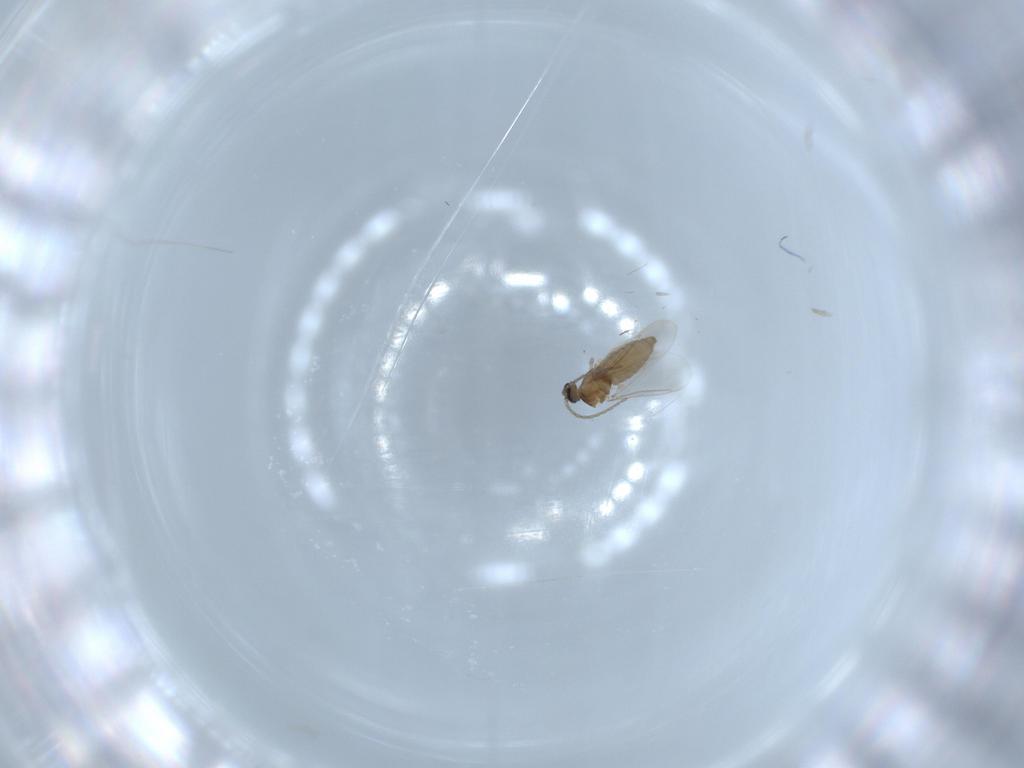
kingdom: Animalia
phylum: Arthropoda
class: Insecta
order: Diptera
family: Cecidomyiidae
